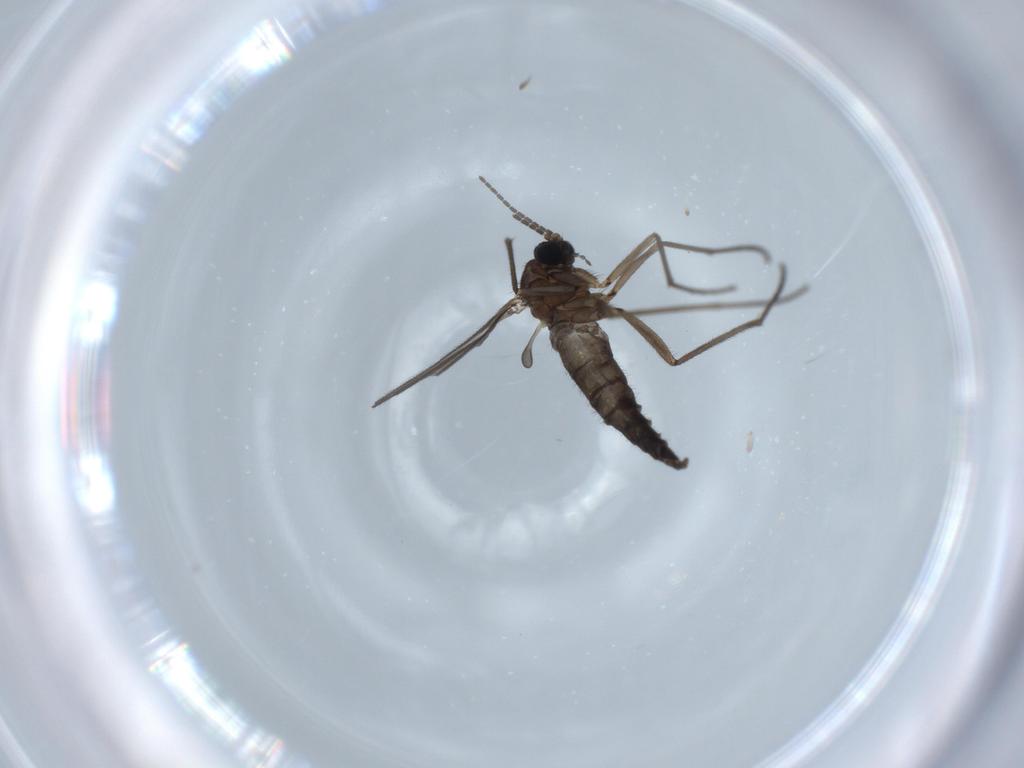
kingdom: Animalia
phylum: Arthropoda
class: Insecta
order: Diptera
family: Sciaridae
